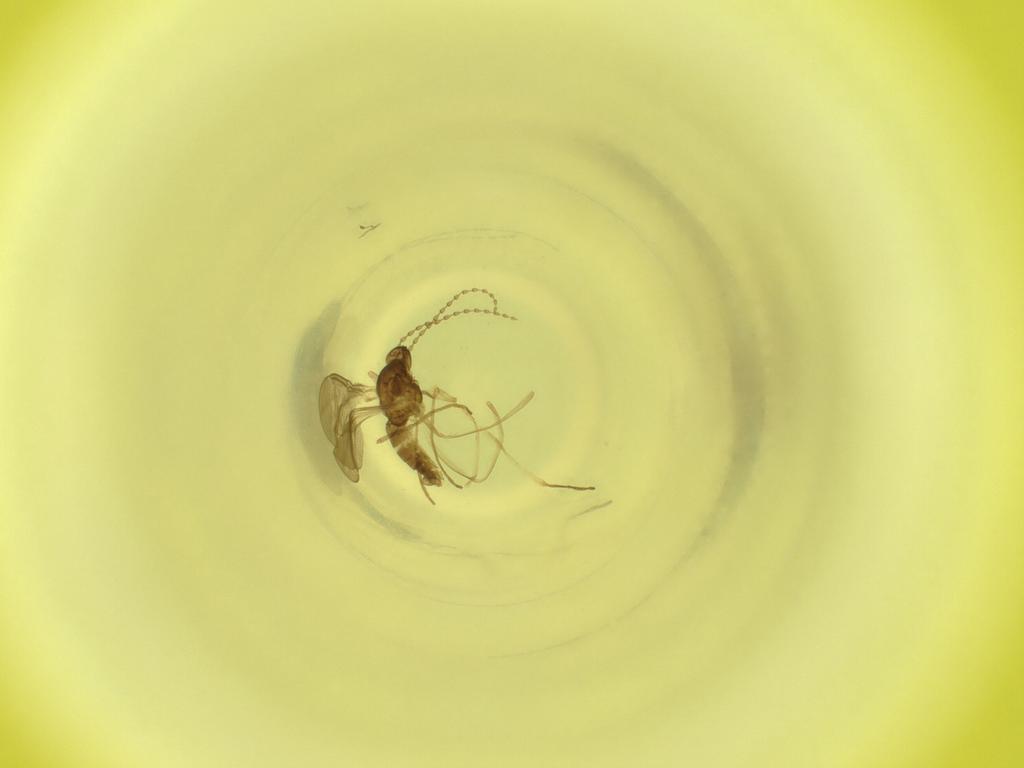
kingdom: Animalia
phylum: Arthropoda
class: Insecta
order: Diptera
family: Cecidomyiidae
